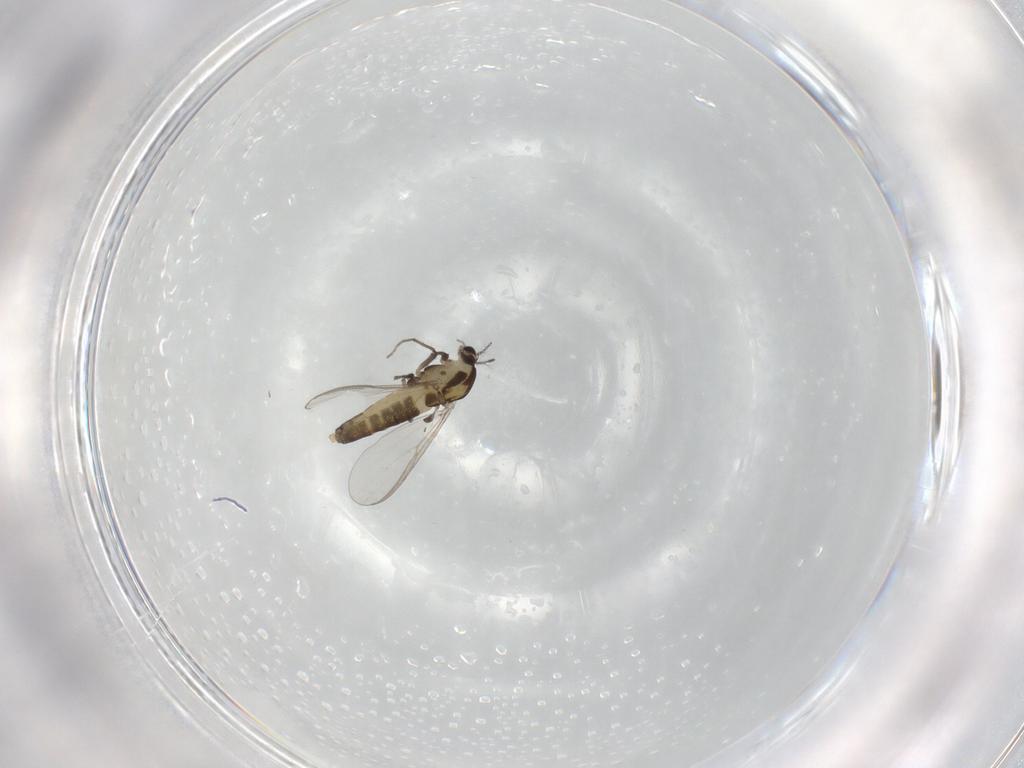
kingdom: Animalia
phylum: Arthropoda
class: Insecta
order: Diptera
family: Chironomidae
